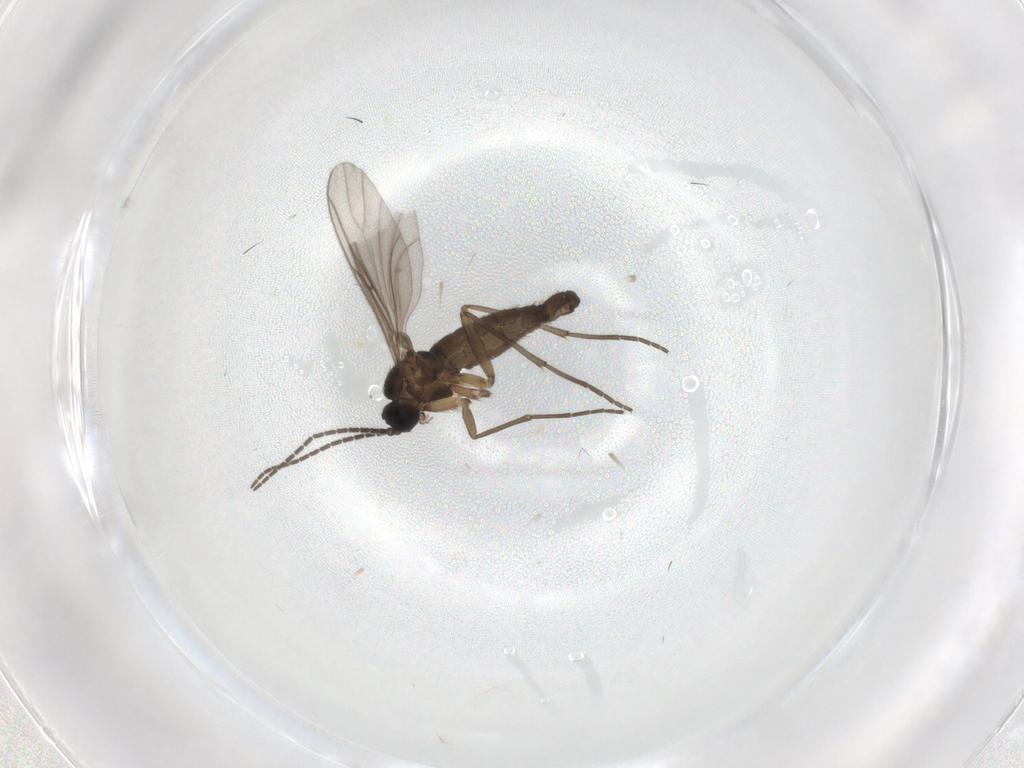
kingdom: Animalia
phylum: Arthropoda
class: Insecta
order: Diptera
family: Sciaridae
